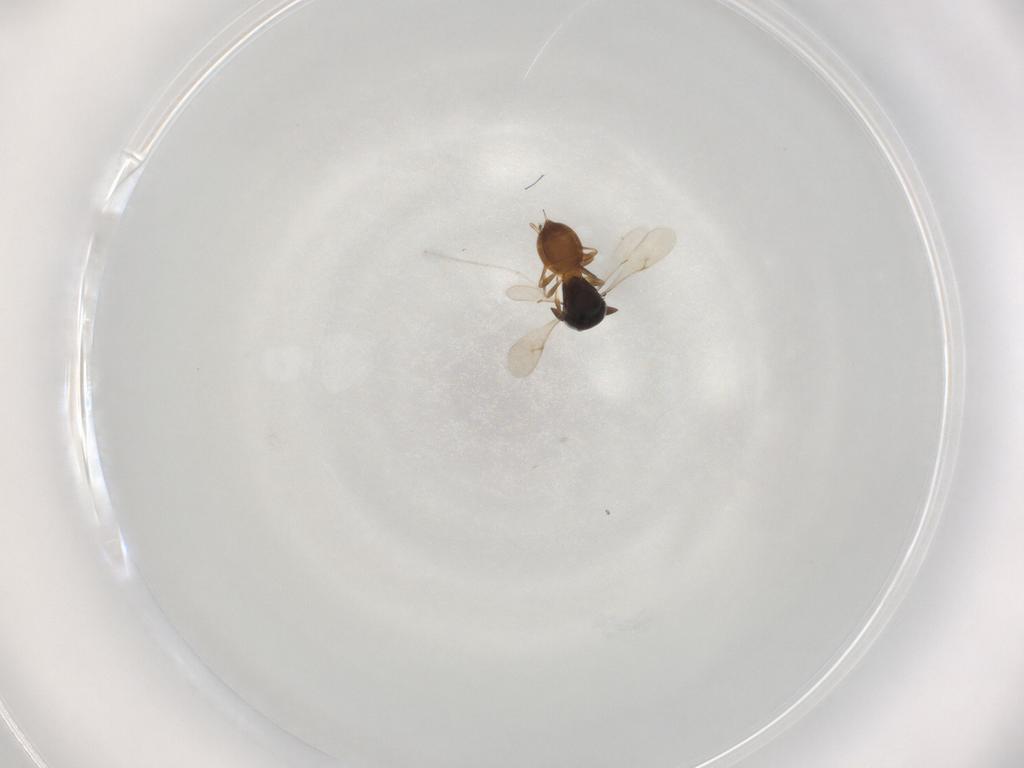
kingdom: Animalia
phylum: Arthropoda
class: Insecta
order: Hymenoptera
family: Scelionidae
